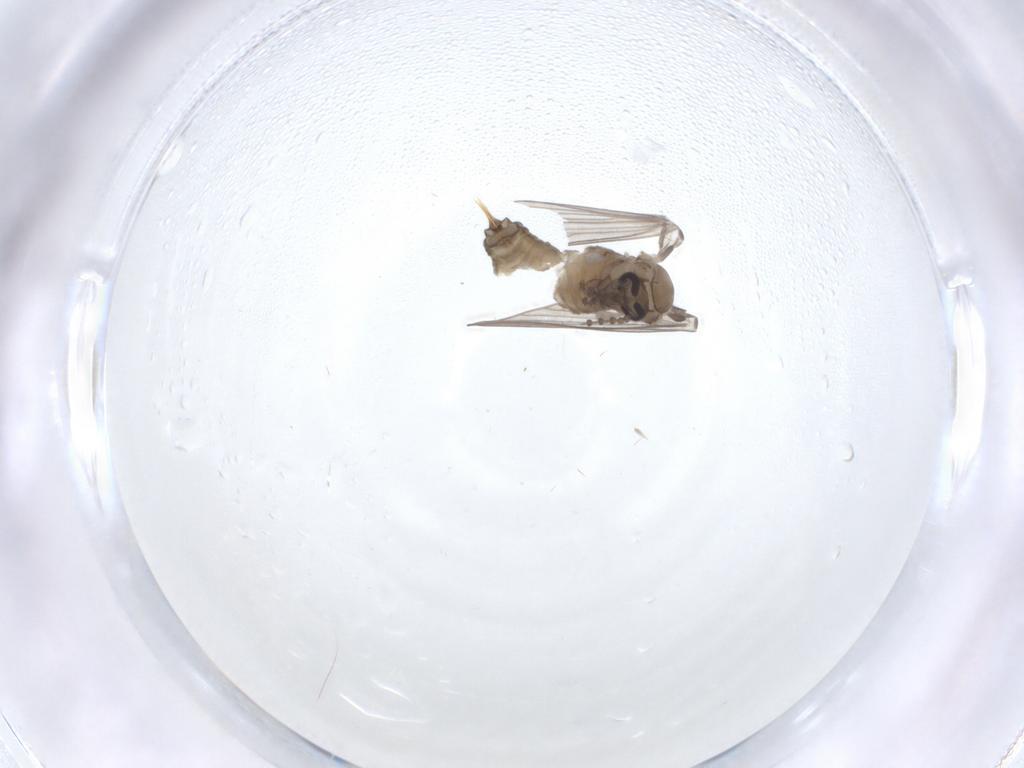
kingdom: Animalia
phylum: Arthropoda
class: Insecta
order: Diptera
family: Psychodidae
